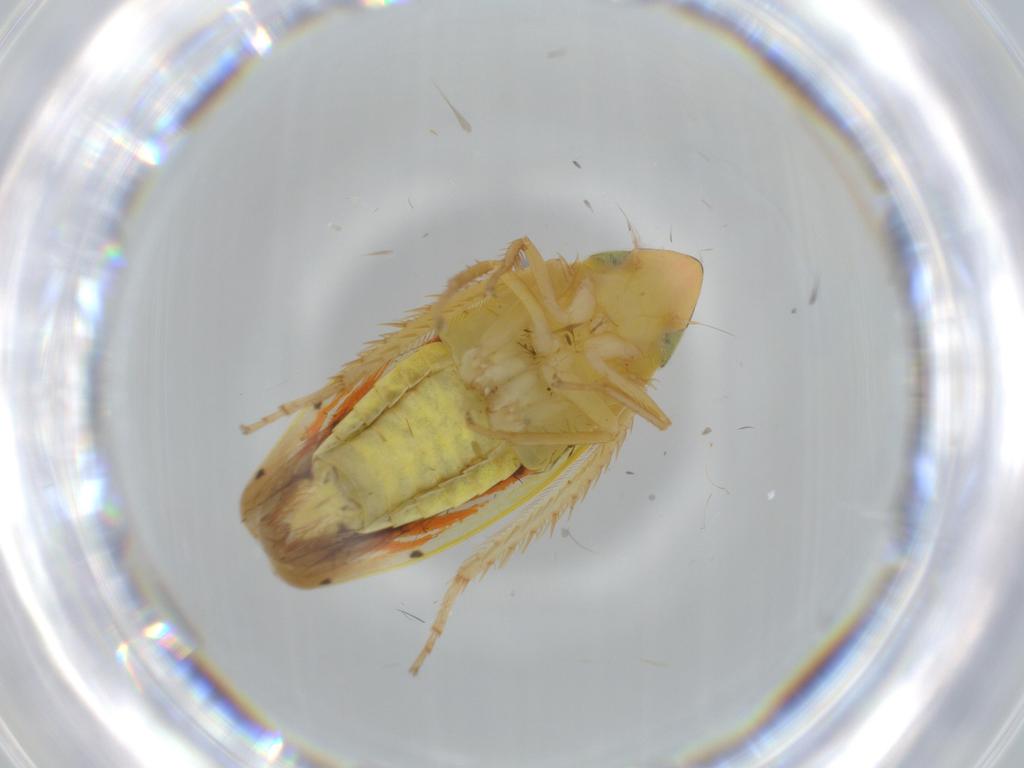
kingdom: Animalia
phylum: Arthropoda
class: Insecta
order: Hemiptera
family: Cicadellidae
